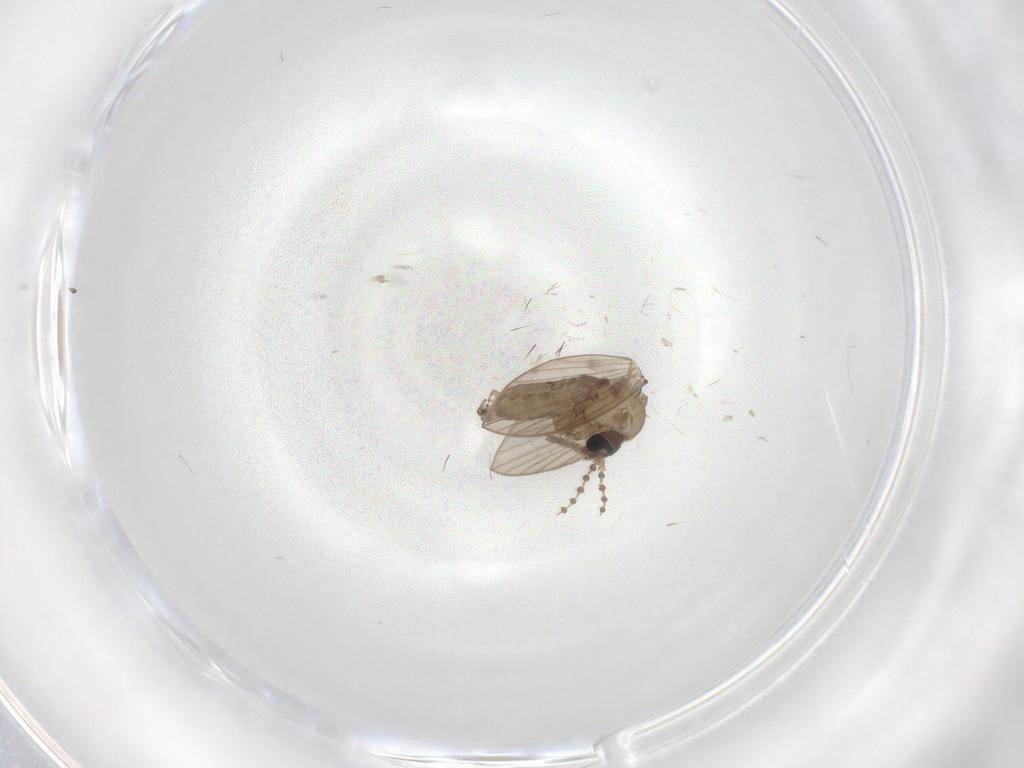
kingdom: Animalia
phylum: Arthropoda
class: Insecta
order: Diptera
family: Psychodidae
